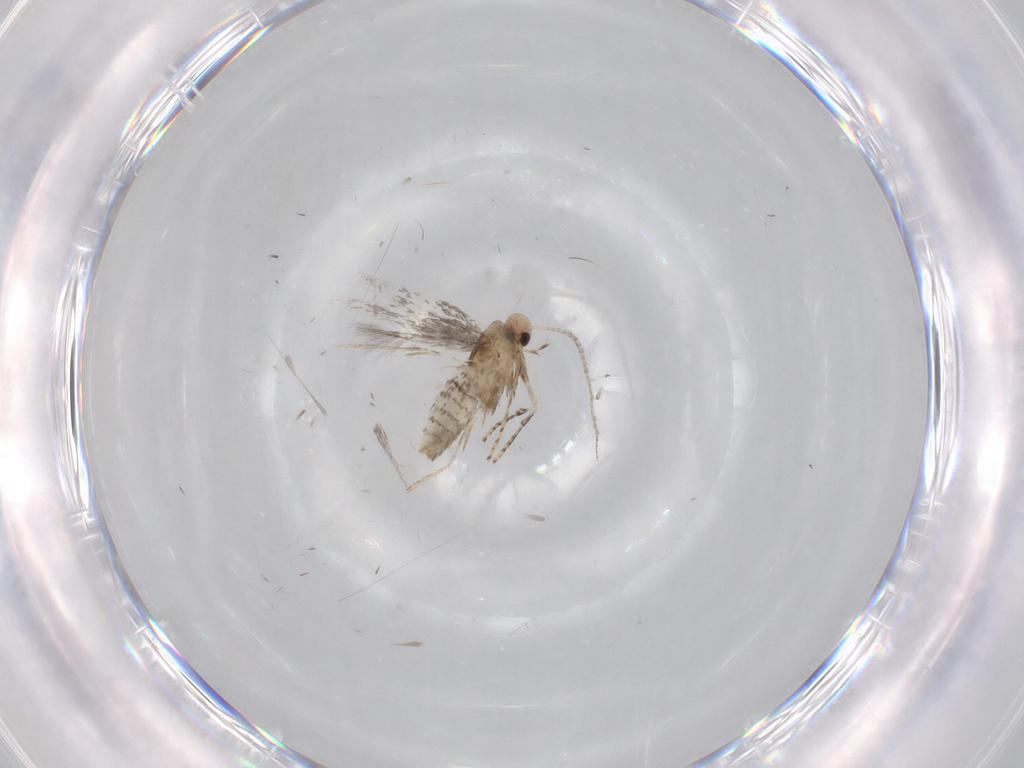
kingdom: Animalia
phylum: Arthropoda
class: Insecta
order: Lepidoptera
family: Gracillariidae
